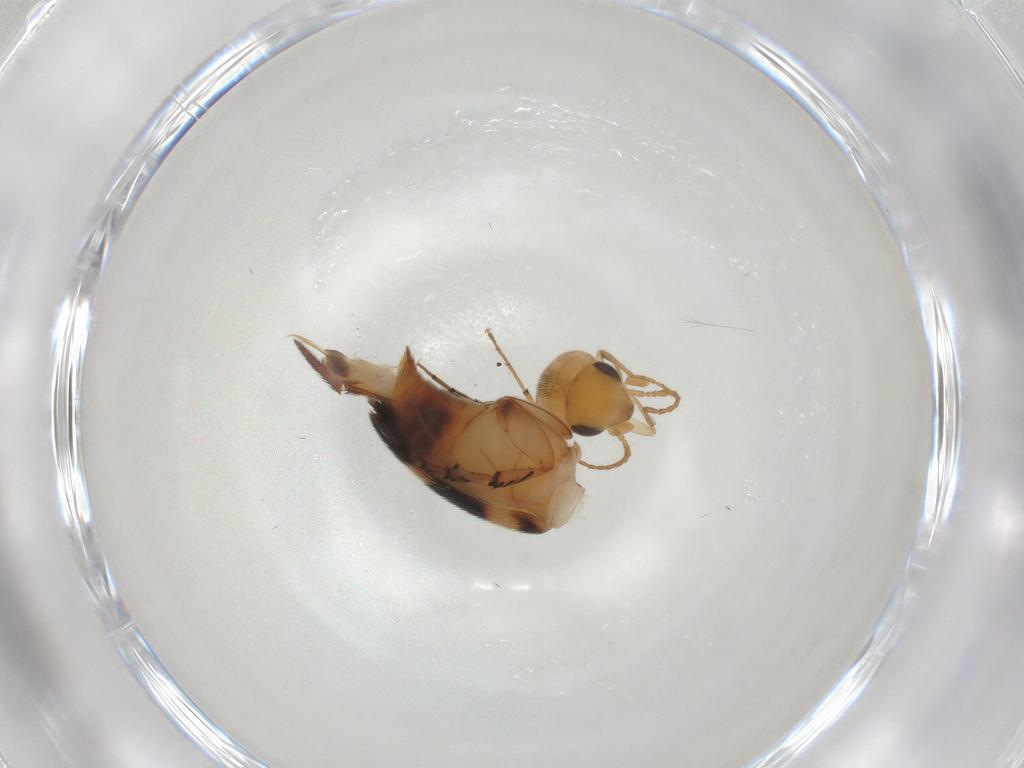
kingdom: Animalia
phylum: Arthropoda
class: Insecta
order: Coleoptera
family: Mordellidae
